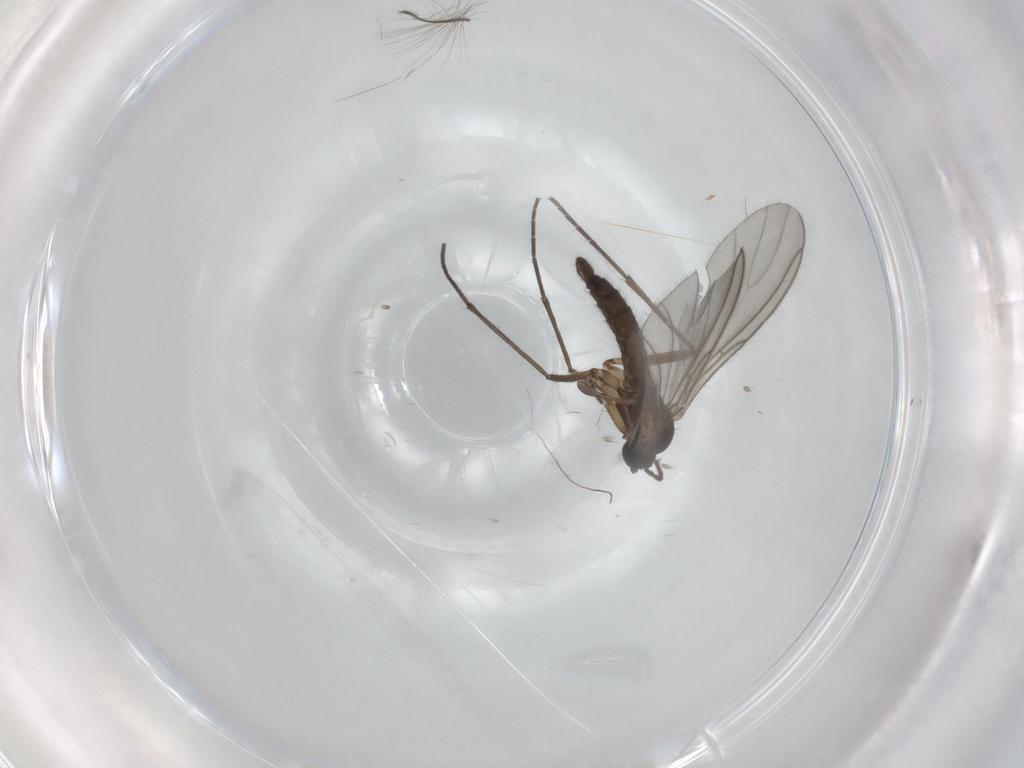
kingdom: Animalia
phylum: Arthropoda
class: Insecta
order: Diptera
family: Sciaridae
